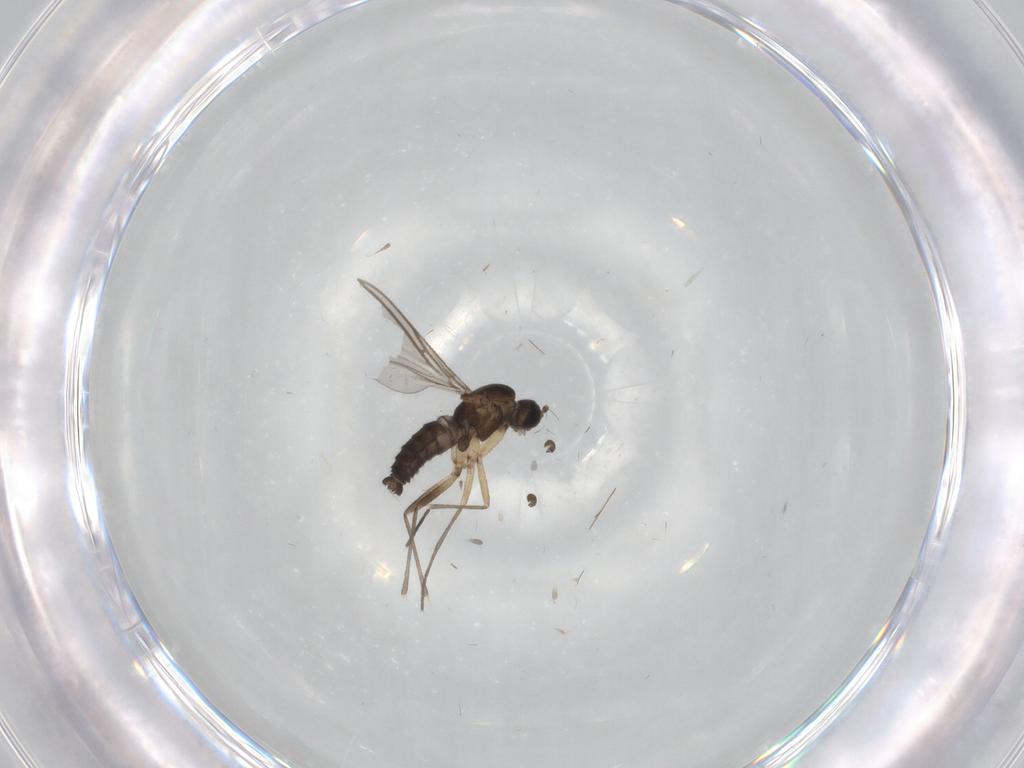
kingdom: Animalia
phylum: Arthropoda
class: Insecta
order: Diptera
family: Sciaridae
